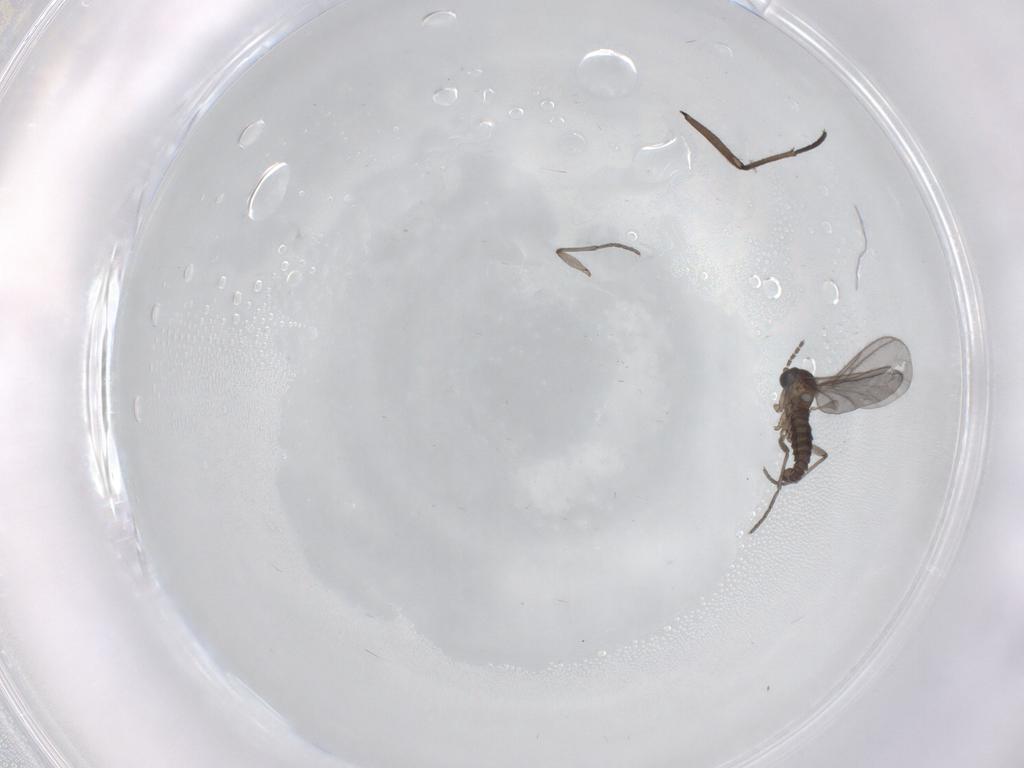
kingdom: Animalia
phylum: Arthropoda
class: Insecta
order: Diptera
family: Sciaridae
